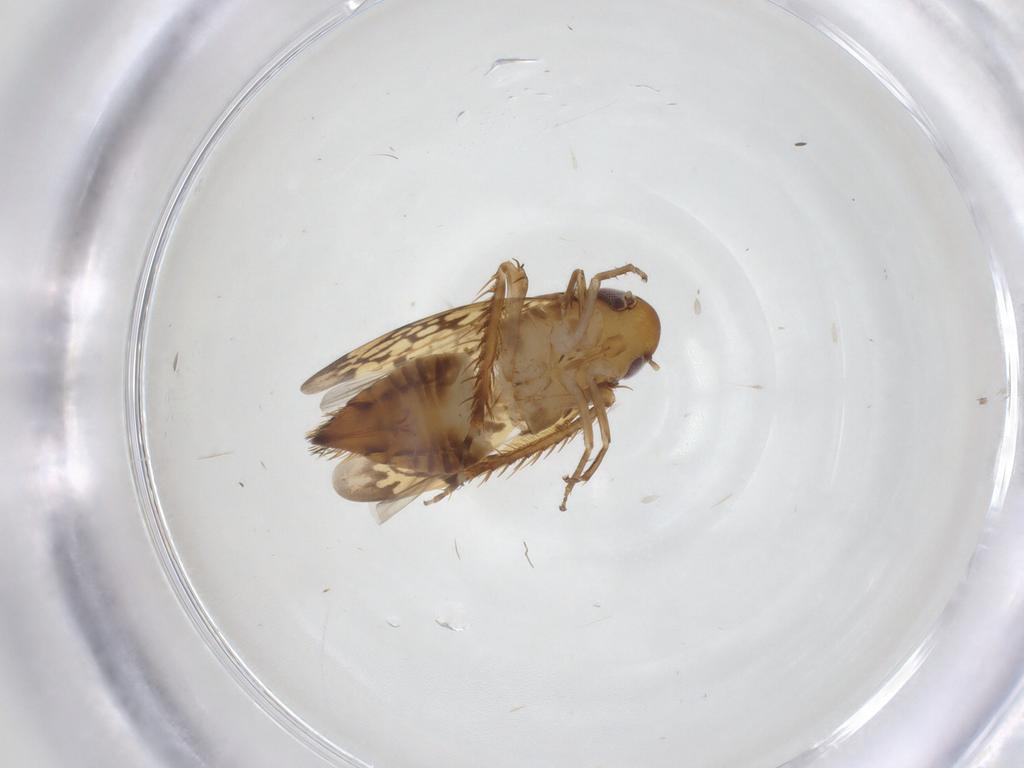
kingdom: Animalia
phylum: Arthropoda
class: Insecta
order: Hemiptera
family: Cicadellidae
